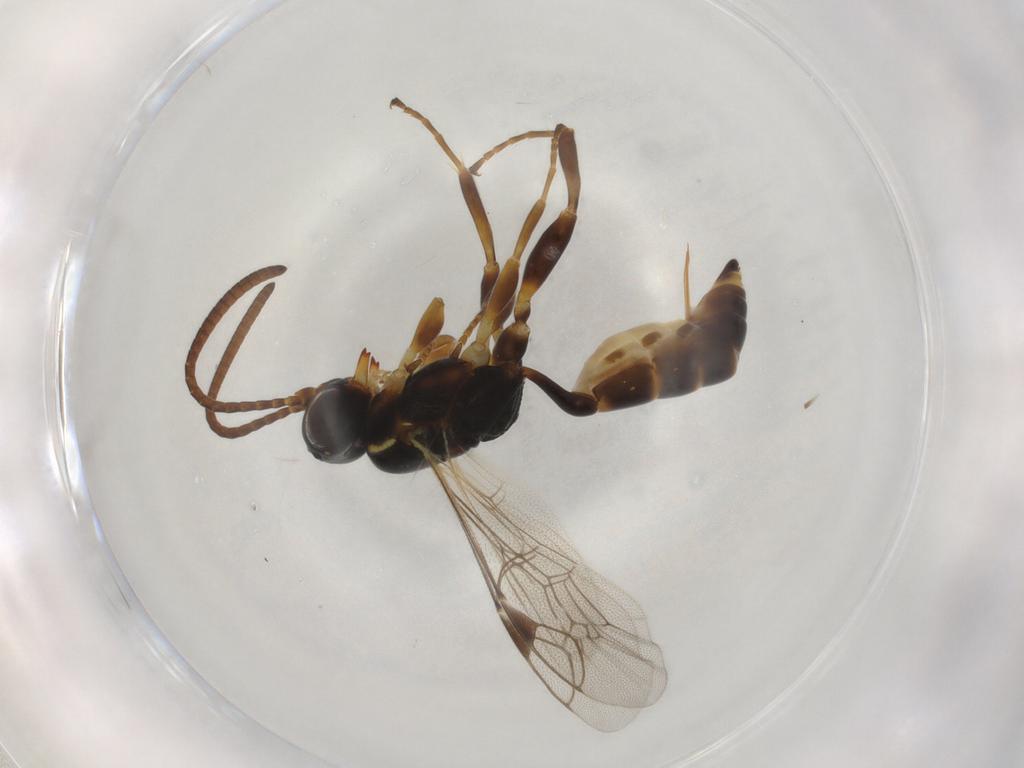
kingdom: Animalia
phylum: Arthropoda
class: Insecta
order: Hymenoptera
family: Ichneumonidae
